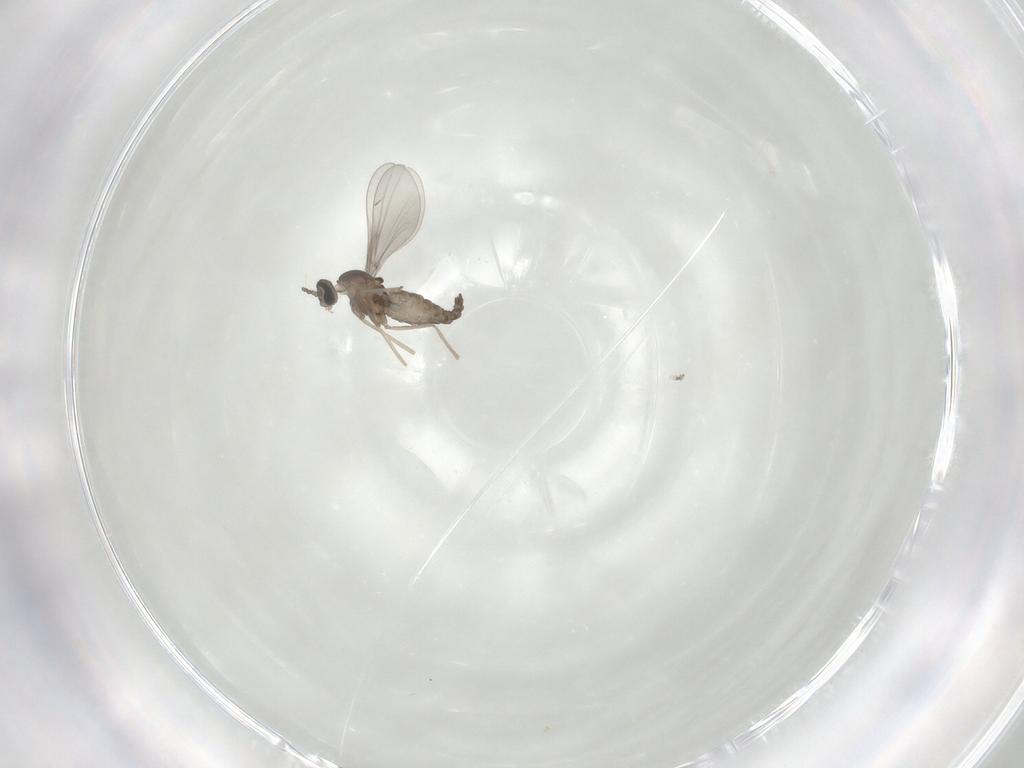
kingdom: Animalia
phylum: Arthropoda
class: Insecta
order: Diptera
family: Cecidomyiidae
